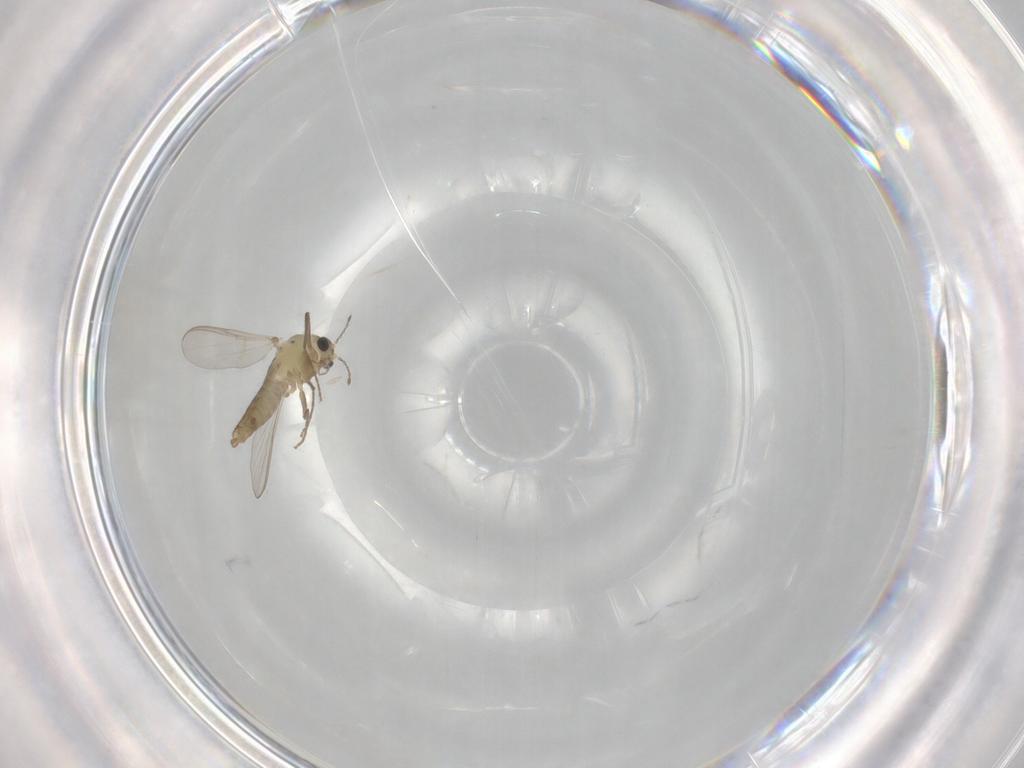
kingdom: Animalia
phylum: Arthropoda
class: Insecta
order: Diptera
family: Chironomidae
